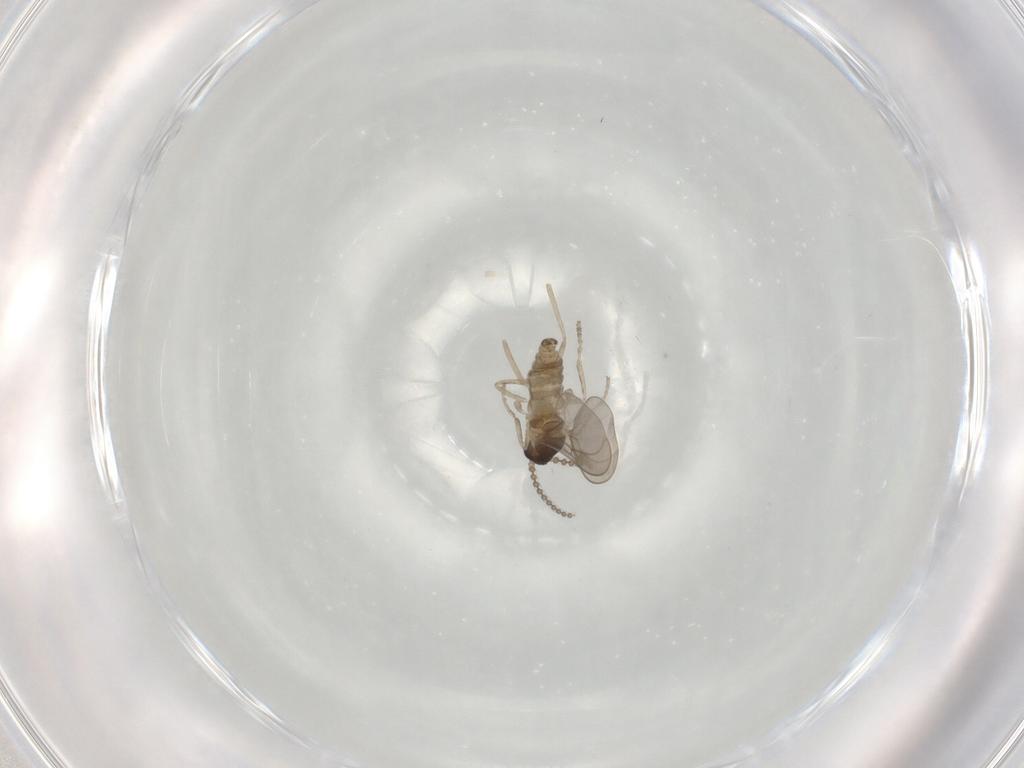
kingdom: Animalia
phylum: Arthropoda
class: Insecta
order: Diptera
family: Cecidomyiidae
